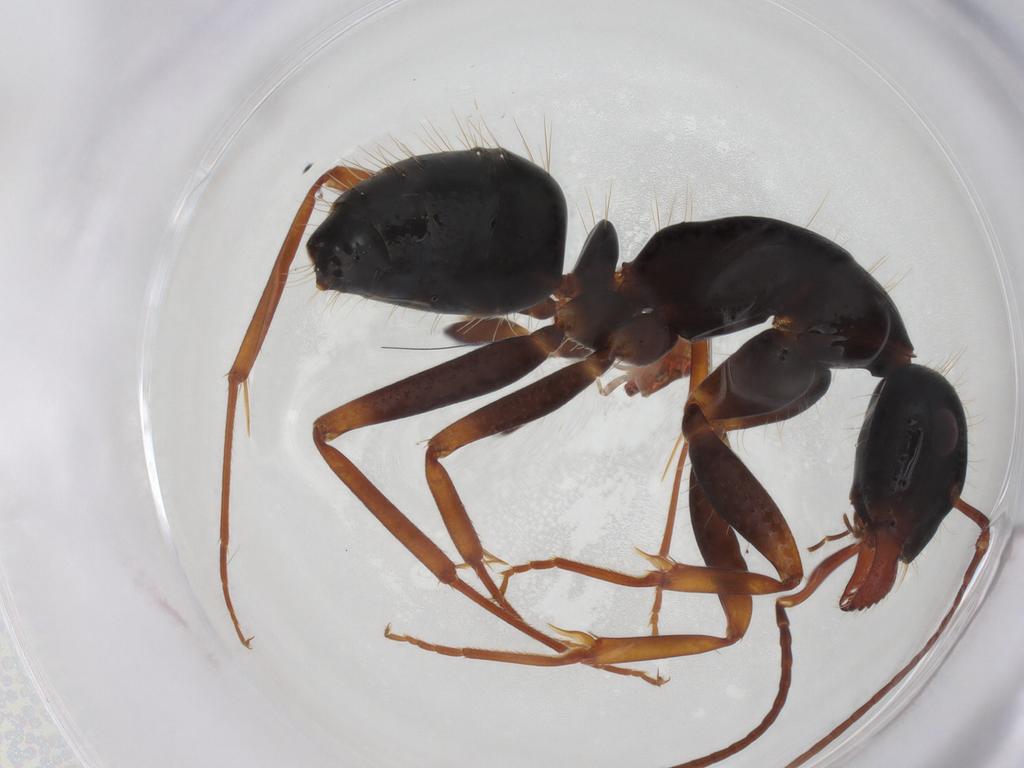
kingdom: Animalia
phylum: Arthropoda
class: Insecta
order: Hymenoptera
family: Formicidae
